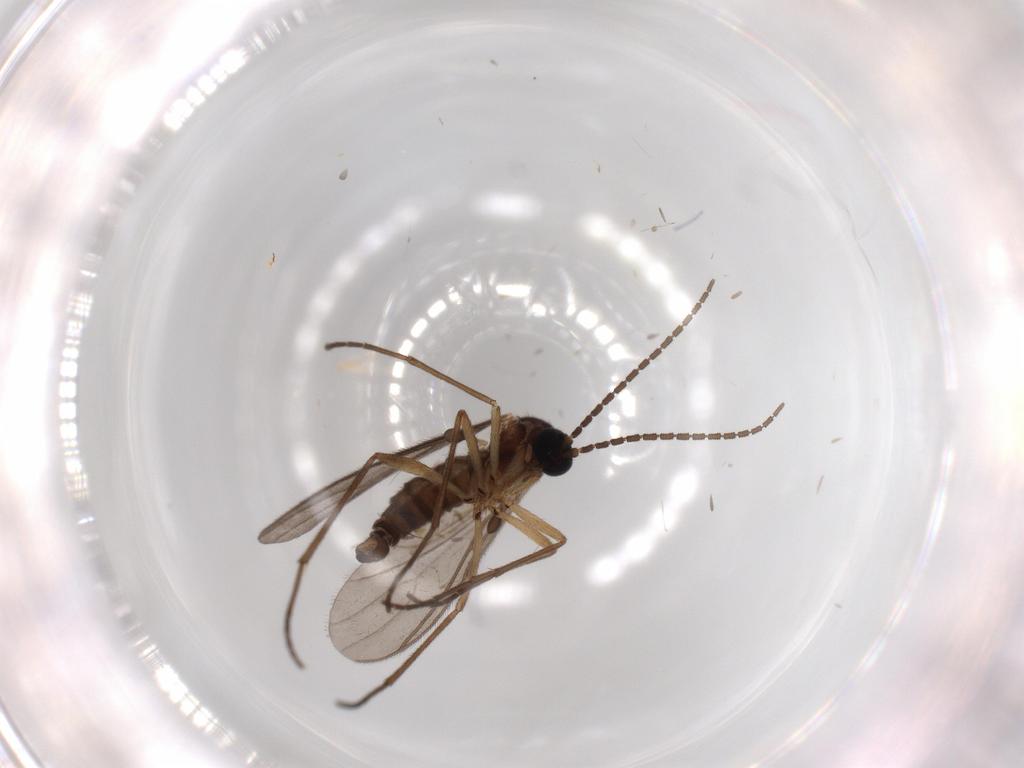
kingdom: Animalia
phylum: Arthropoda
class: Insecta
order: Diptera
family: Sciaridae
